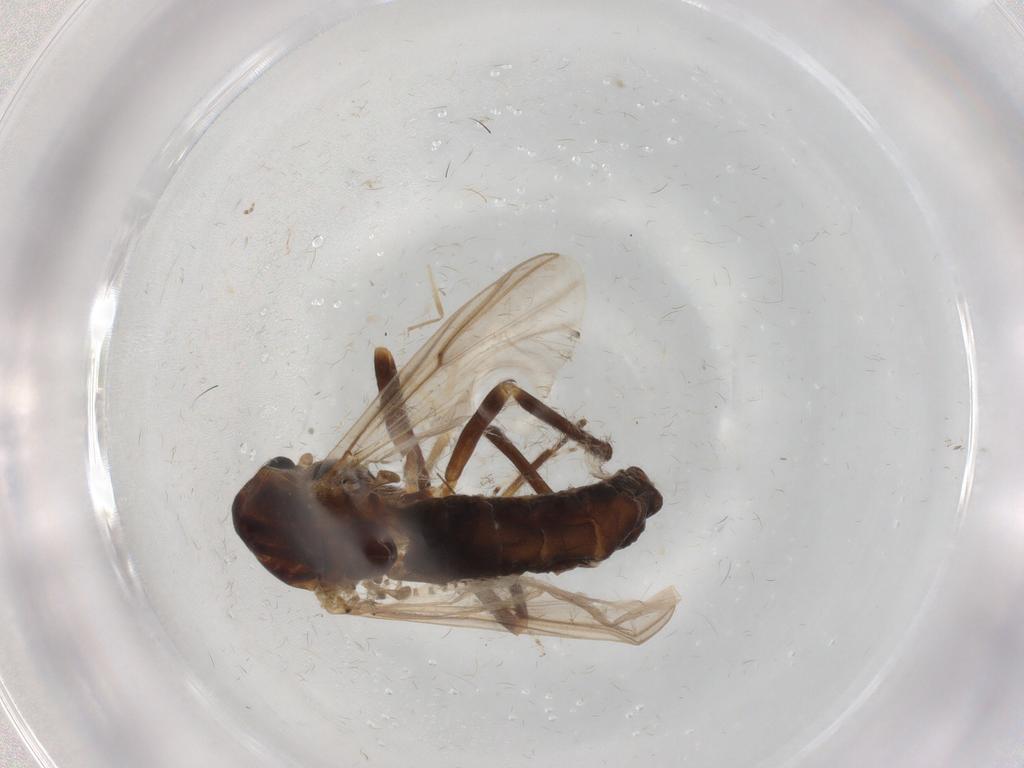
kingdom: Animalia
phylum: Arthropoda
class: Insecta
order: Diptera
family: Chironomidae
